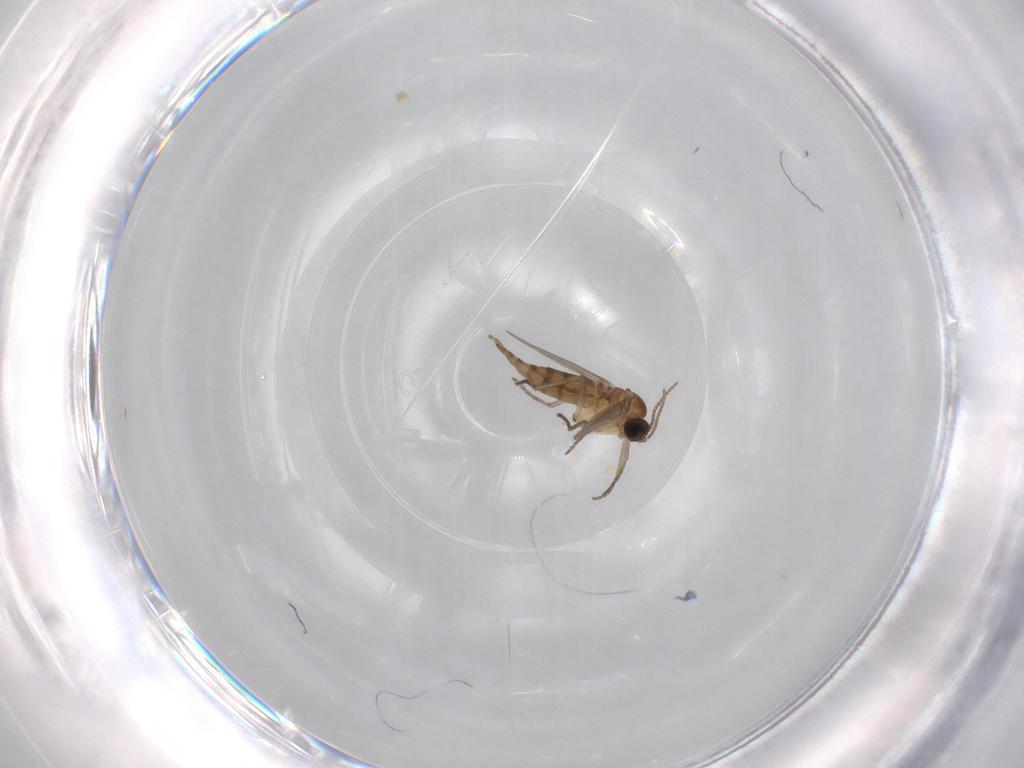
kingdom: Animalia
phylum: Arthropoda
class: Insecta
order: Diptera
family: Sciaridae
